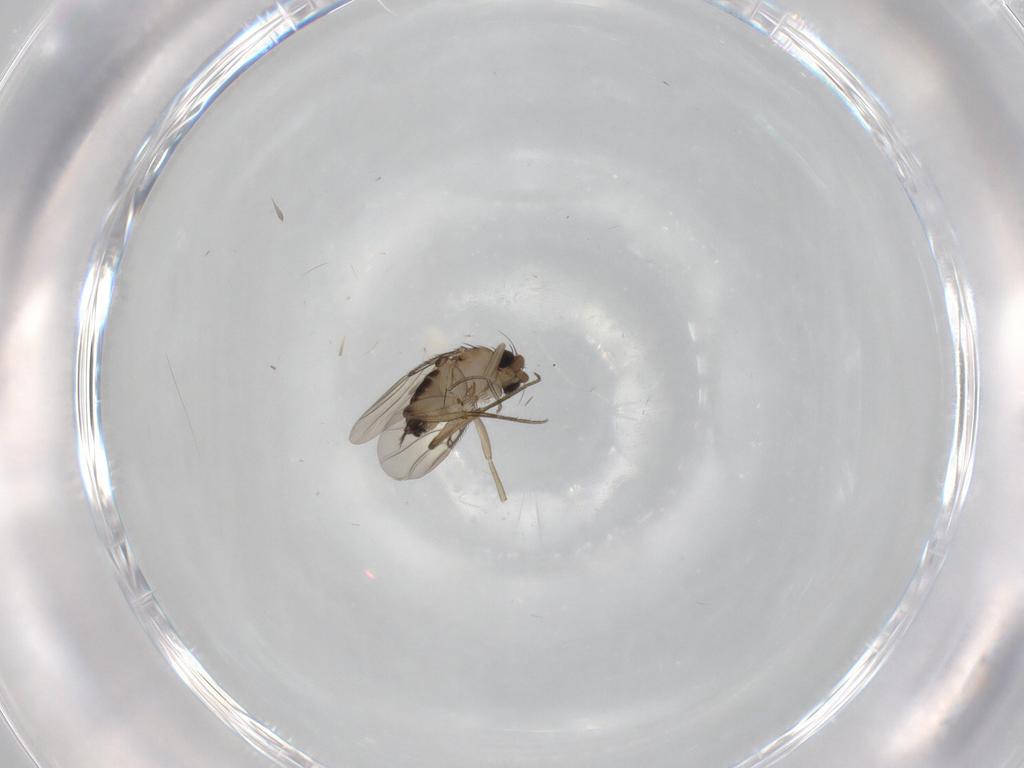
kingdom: Animalia
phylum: Arthropoda
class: Insecta
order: Diptera
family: Phoridae
